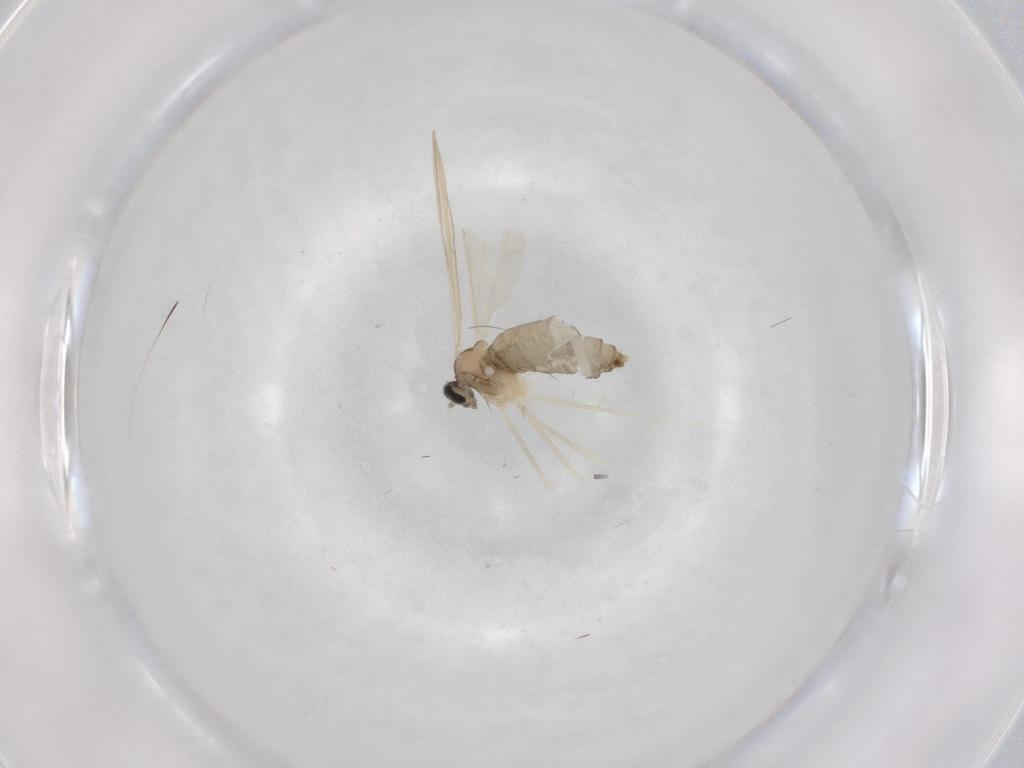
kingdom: Animalia
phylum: Arthropoda
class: Insecta
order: Diptera
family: Cecidomyiidae
